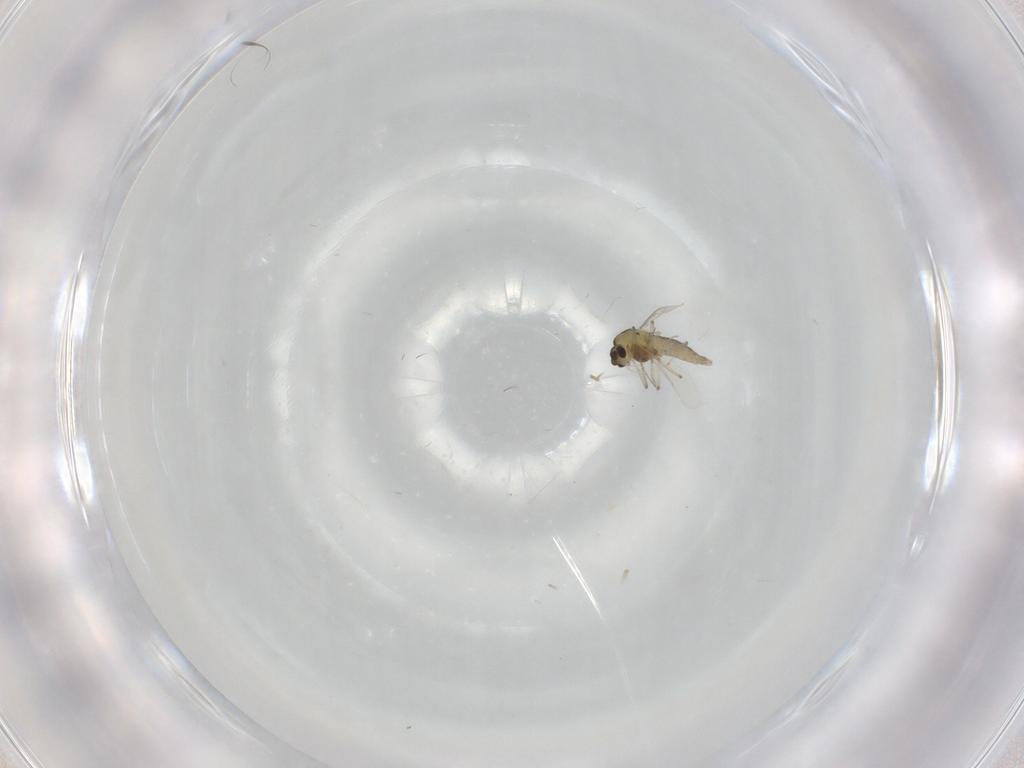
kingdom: Animalia
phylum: Arthropoda
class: Insecta
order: Diptera
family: Chironomidae
